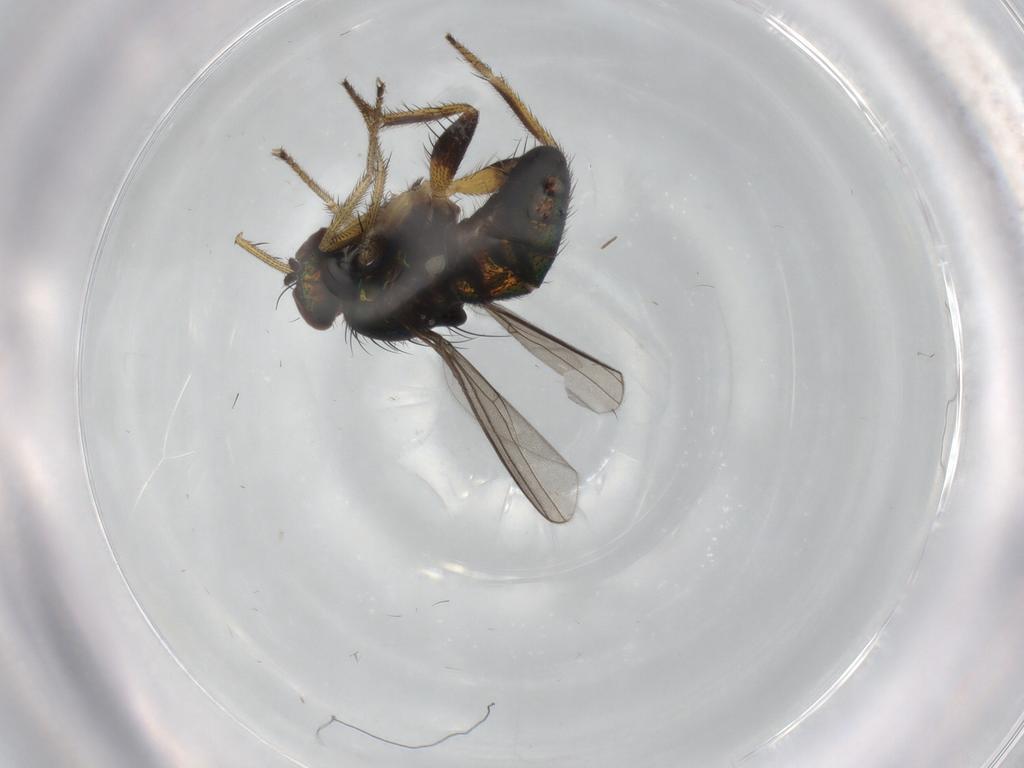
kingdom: Animalia
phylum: Arthropoda
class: Insecta
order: Diptera
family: Dolichopodidae
